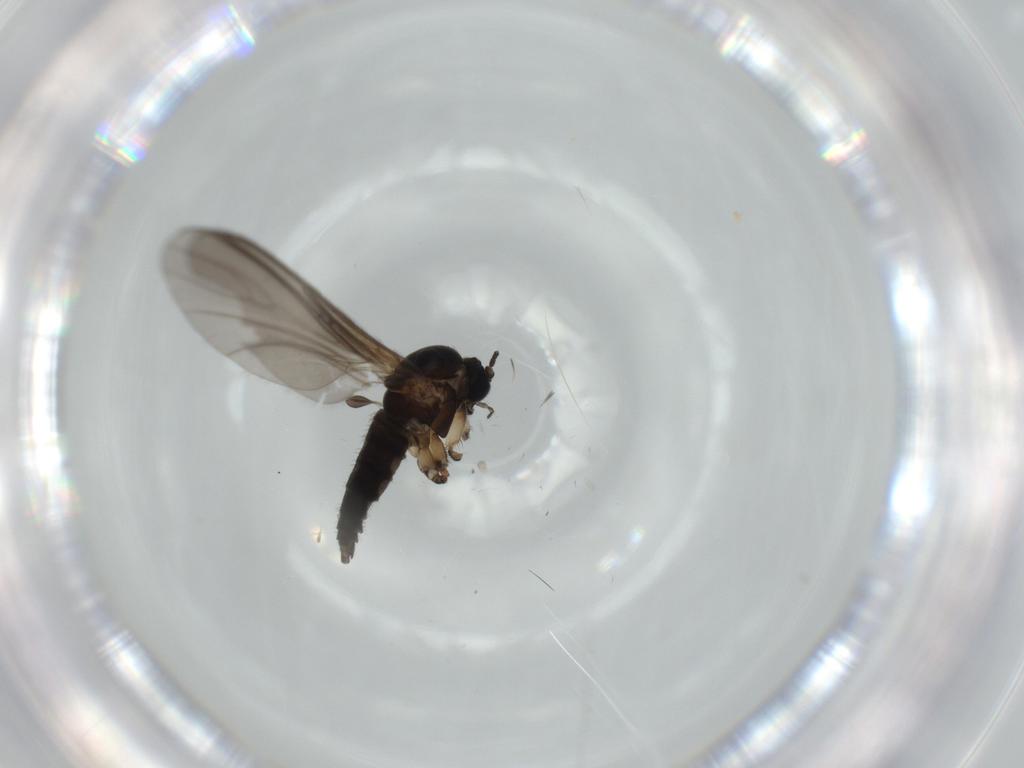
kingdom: Animalia
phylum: Arthropoda
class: Insecta
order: Diptera
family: Sciaridae
